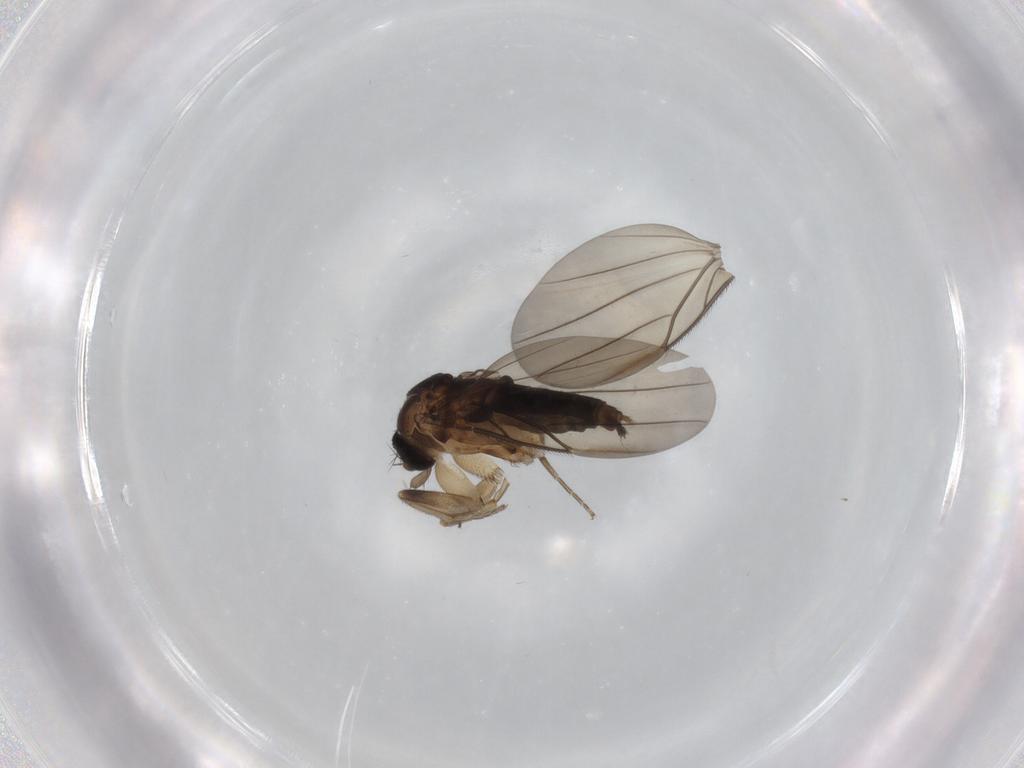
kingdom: Animalia
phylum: Arthropoda
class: Insecta
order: Diptera
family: Phoridae
